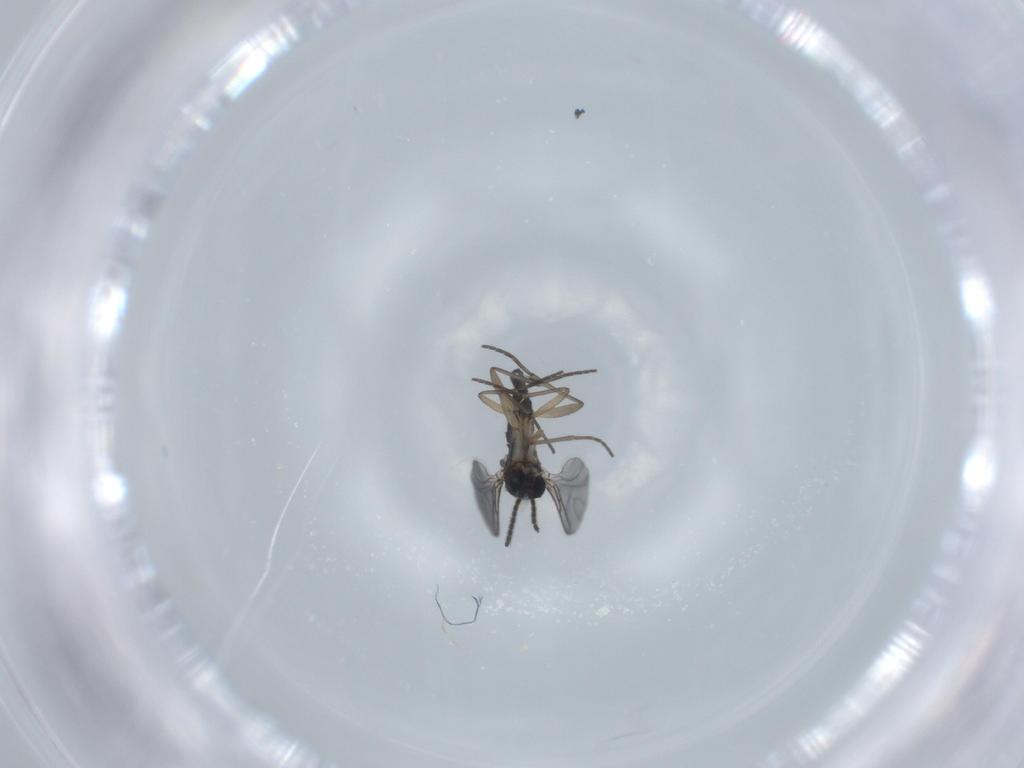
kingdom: Animalia
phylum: Arthropoda
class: Insecta
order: Diptera
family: Sciaridae
